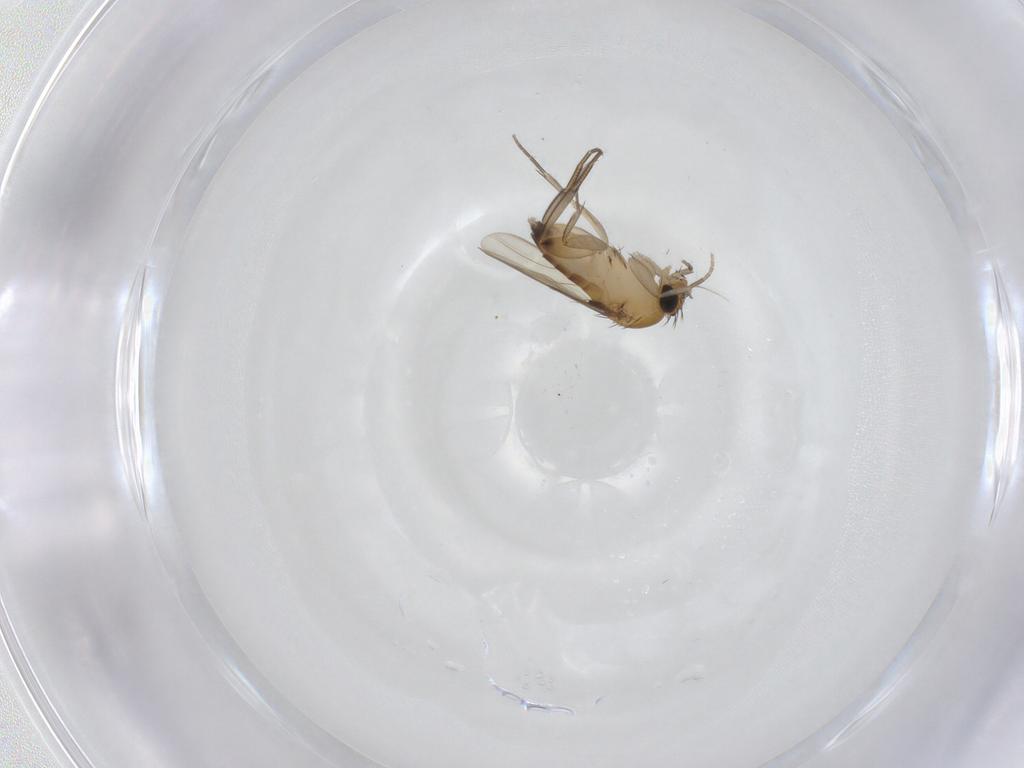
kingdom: Animalia
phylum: Arthropoda
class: Insecta
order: Diptera
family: Phoridae
